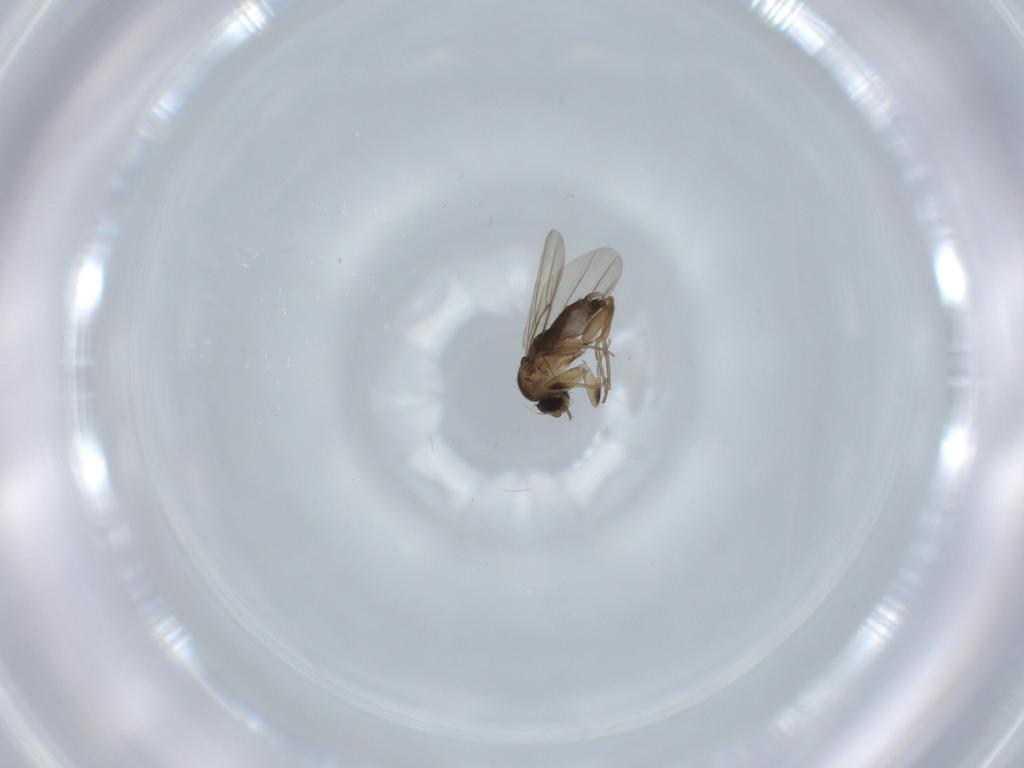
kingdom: Animalia
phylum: Arthropoda
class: Insecta
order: Diptera
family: Phoridae
